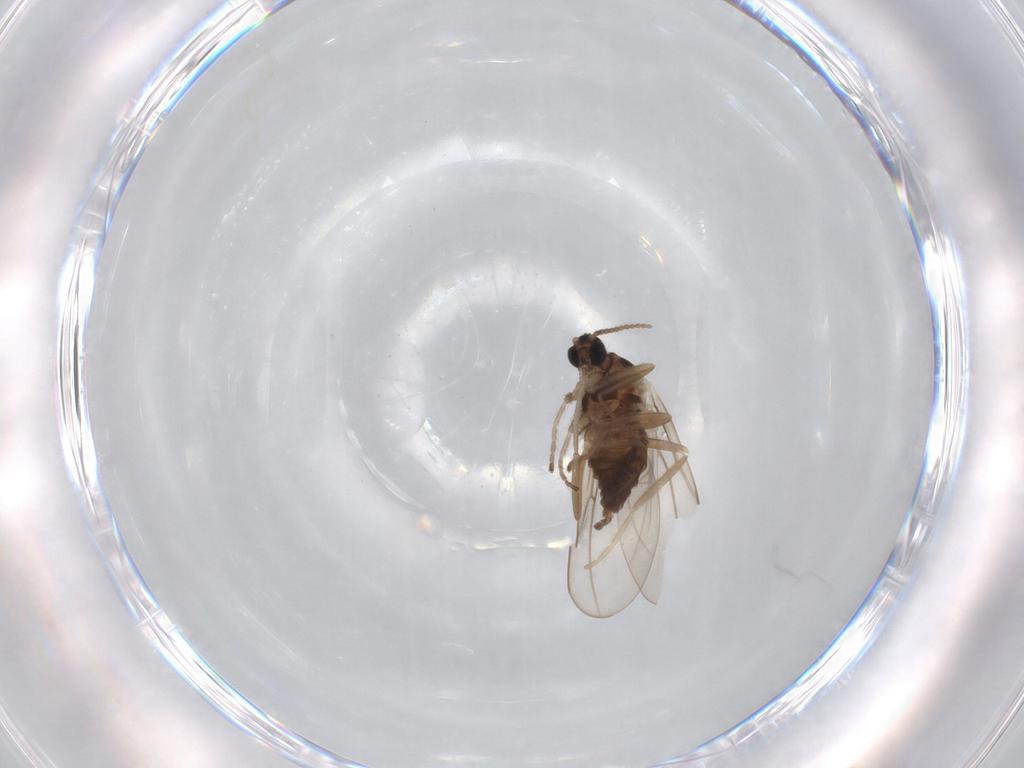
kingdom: Animalia
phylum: Arthropoda
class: Insecta
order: Diptera
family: Cecidomyiidae
